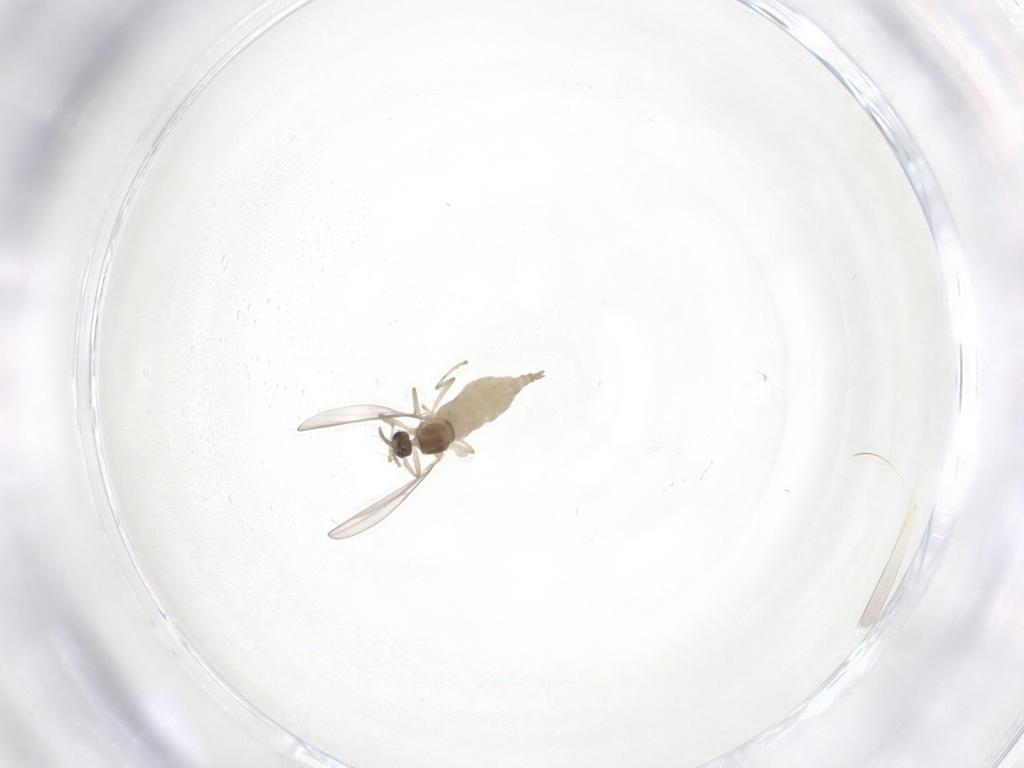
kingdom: Animalia
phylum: Arthropoda
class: Insecta
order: Diptera
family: Cecidomyiidae
